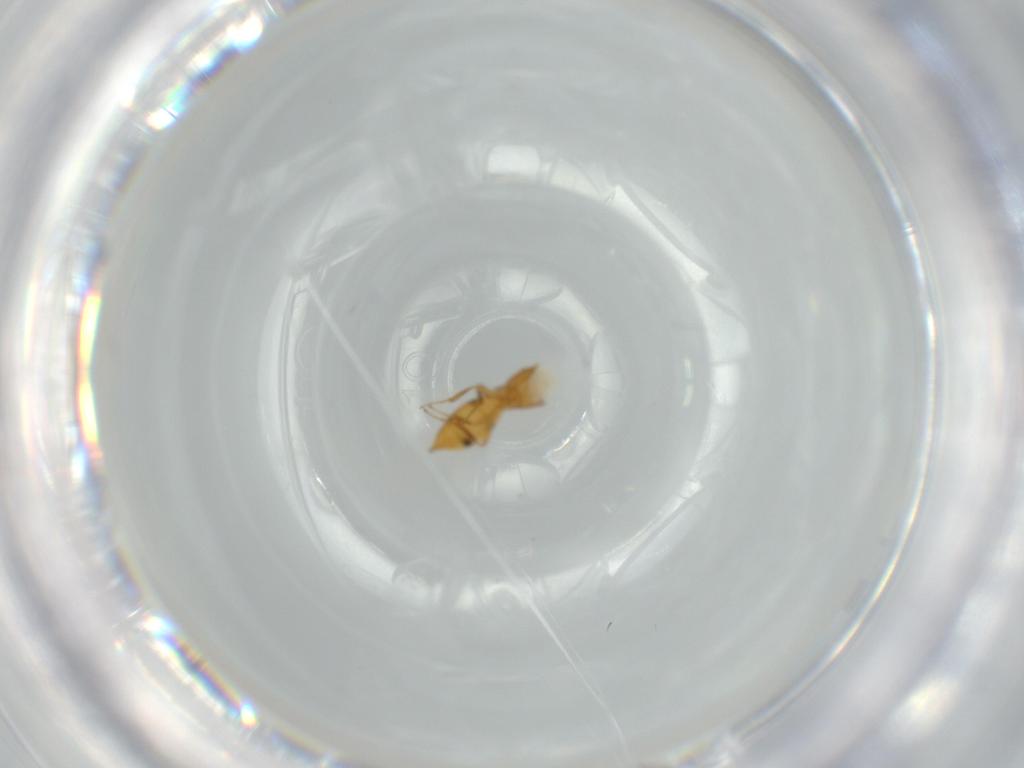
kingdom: Animalia
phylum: Arthropoda
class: Insecta
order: Hymenoptera
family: Scelionidae
